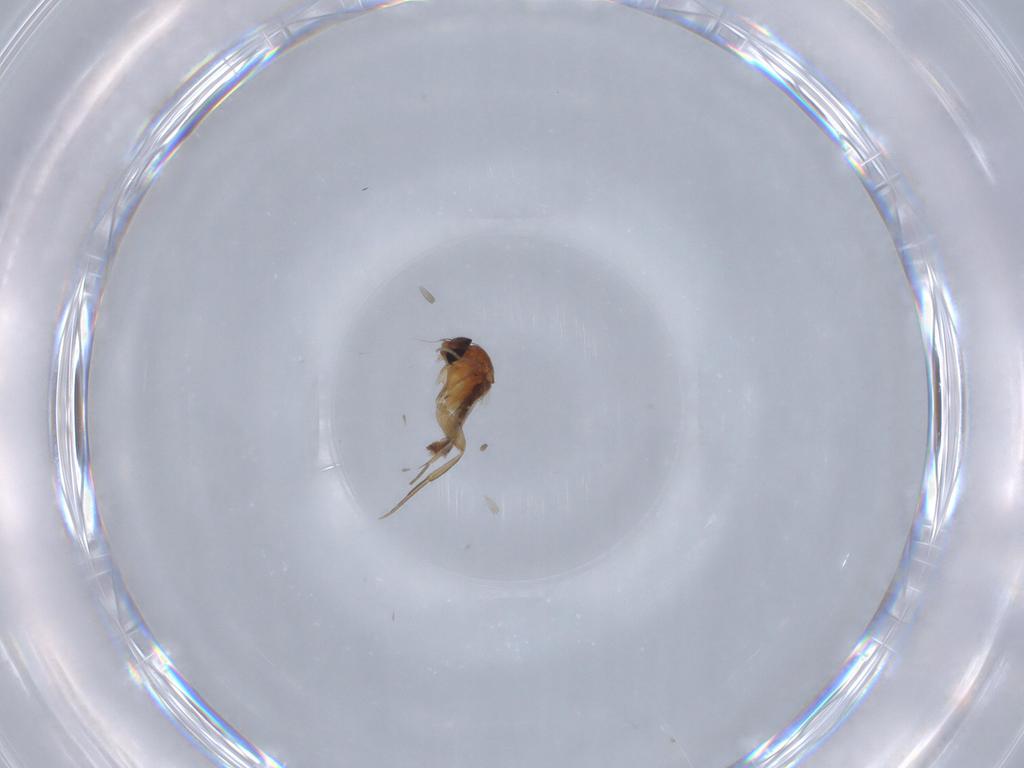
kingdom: Animalia
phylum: Arthropoda
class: Insecta
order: Diptera
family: Phoridae
